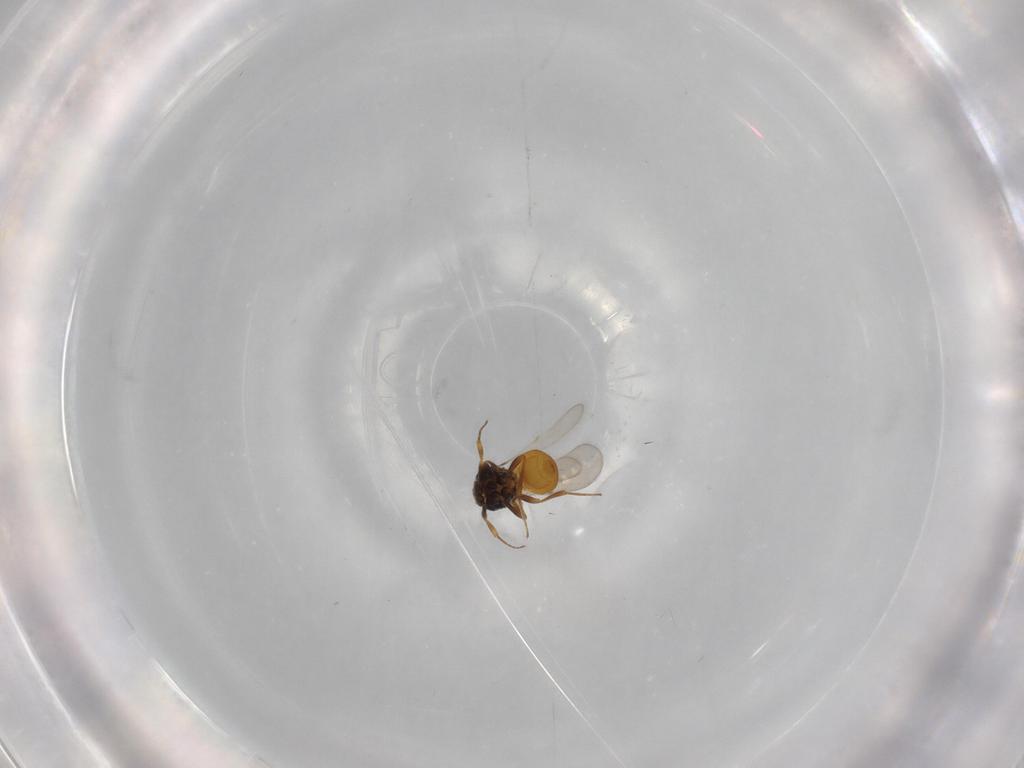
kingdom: Animalia
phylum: Arthropoda
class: Insecta
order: Hymenoptera
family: Scelionidae
